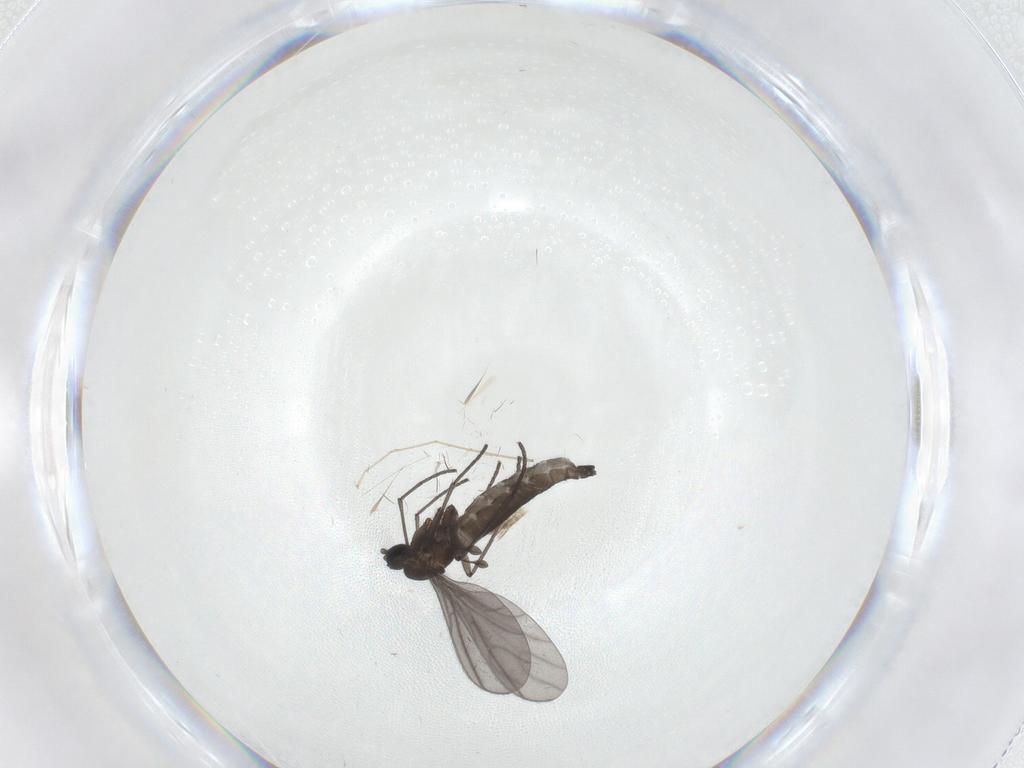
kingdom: Animalia
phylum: Arthropoda
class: Insecta
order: Diptera
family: Sciaridae
